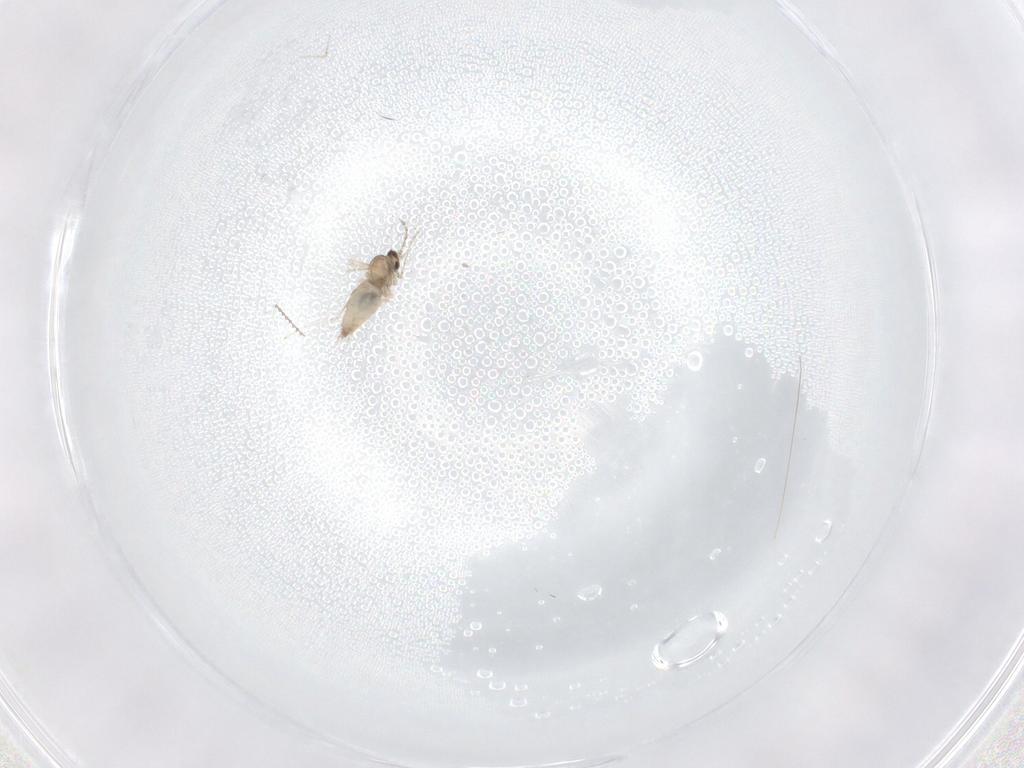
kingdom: Animalia
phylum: Arthropoda
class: Insecta
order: Diptera
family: Cecidomyiidae
